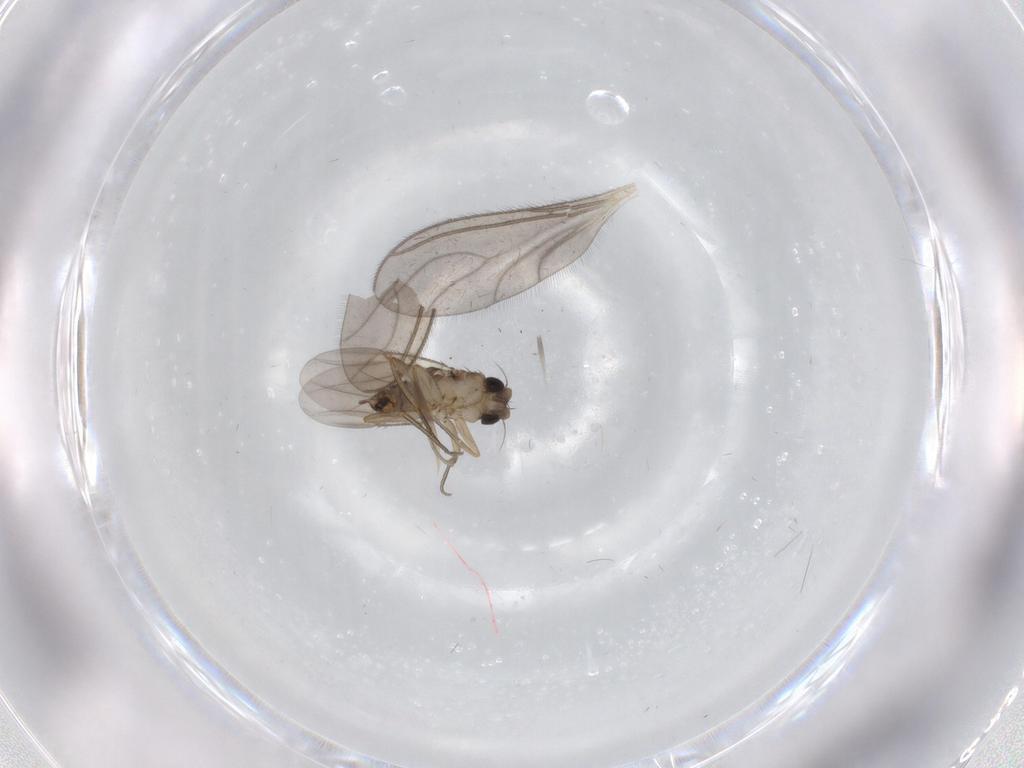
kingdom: Animalia
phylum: Arthropoda
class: Insecta
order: Diptera
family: Sciaridae
